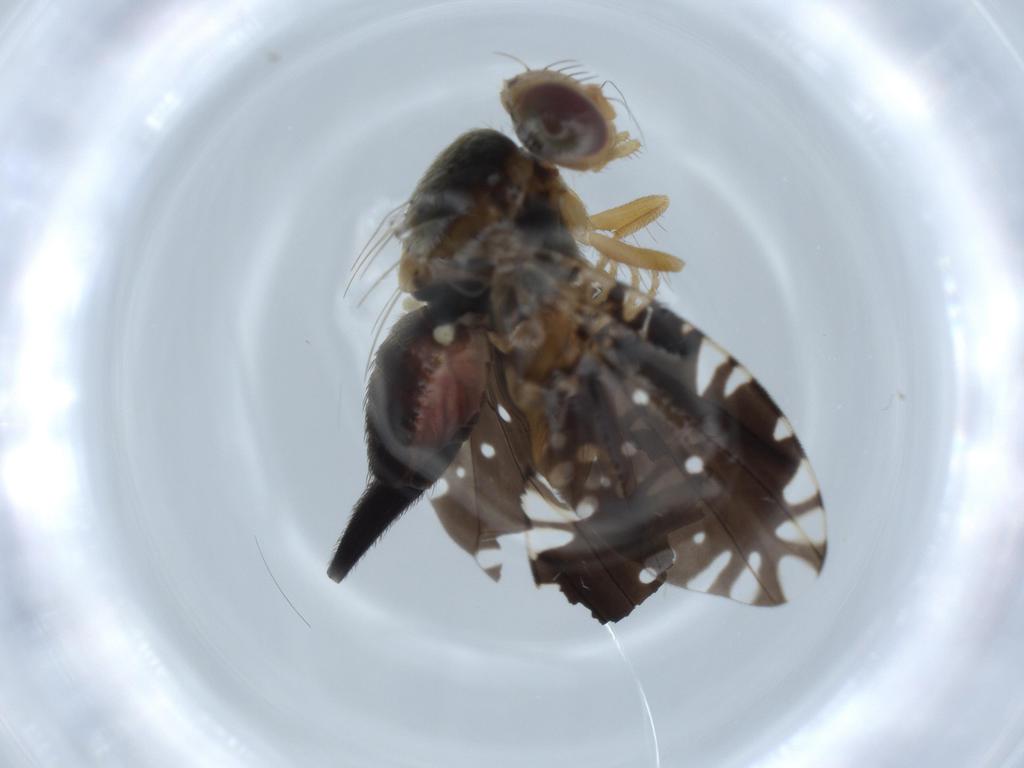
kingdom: Animalia
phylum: Arthropoda
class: Insecta
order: Diptera
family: Tephritidae
